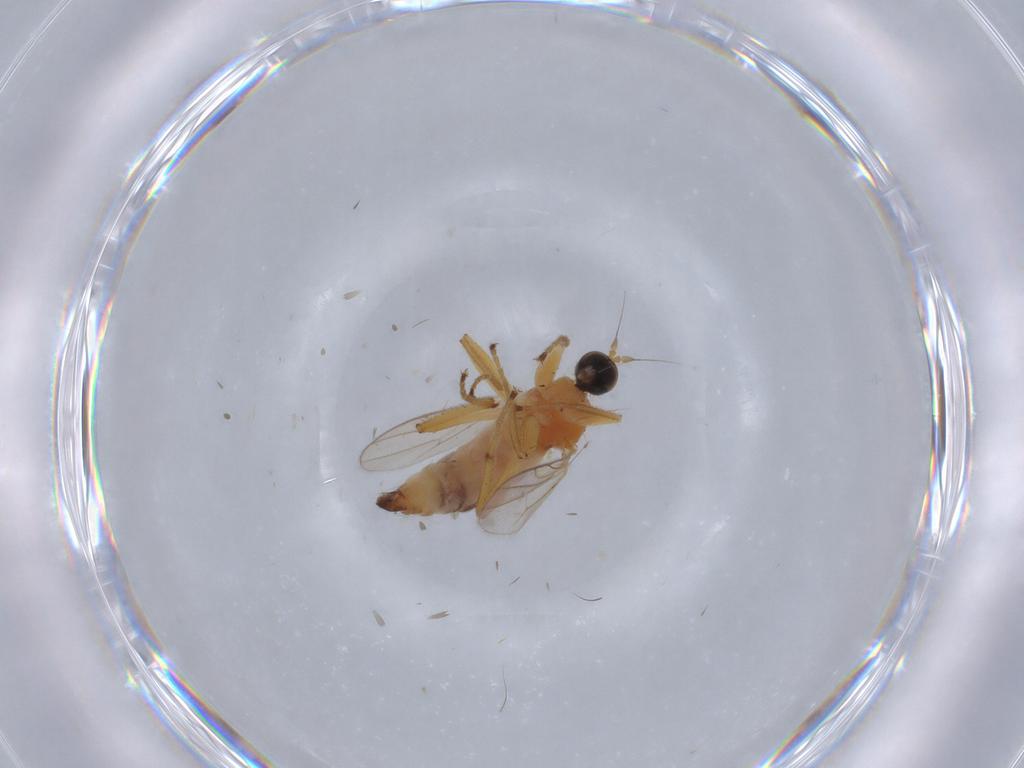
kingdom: Animalia
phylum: Arthropoda
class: Insecta
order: Diptera
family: Hybotidae
